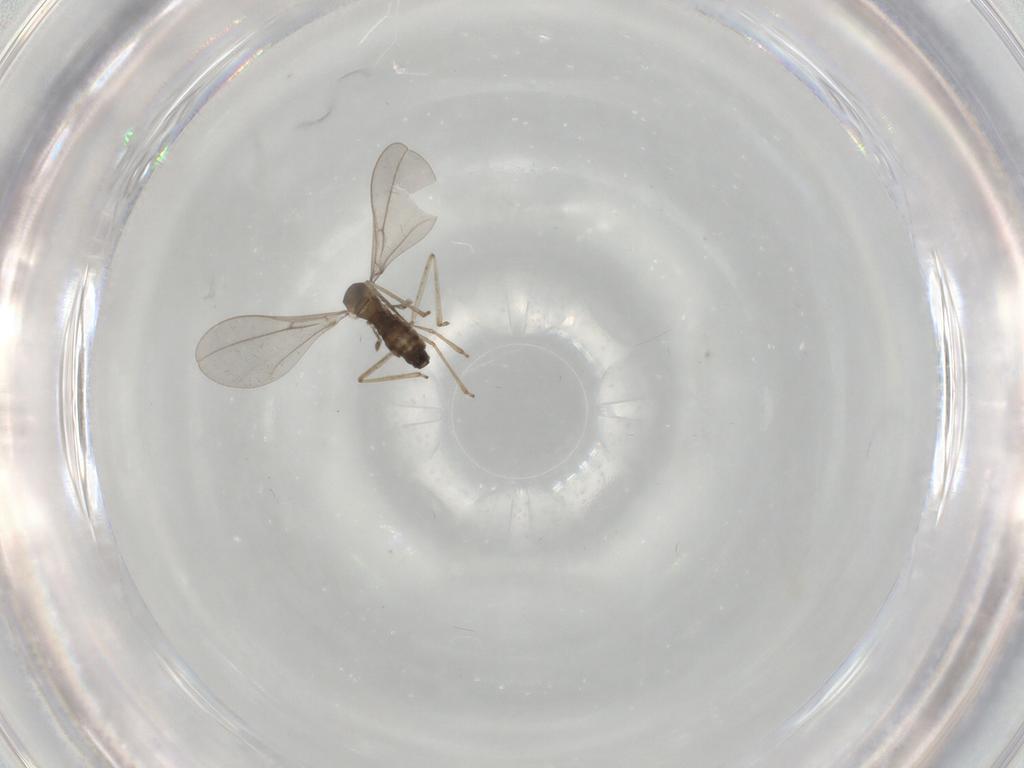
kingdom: Animalia
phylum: Arthropoda
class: Insecta
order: Diptera
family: Cecidomyiidae
